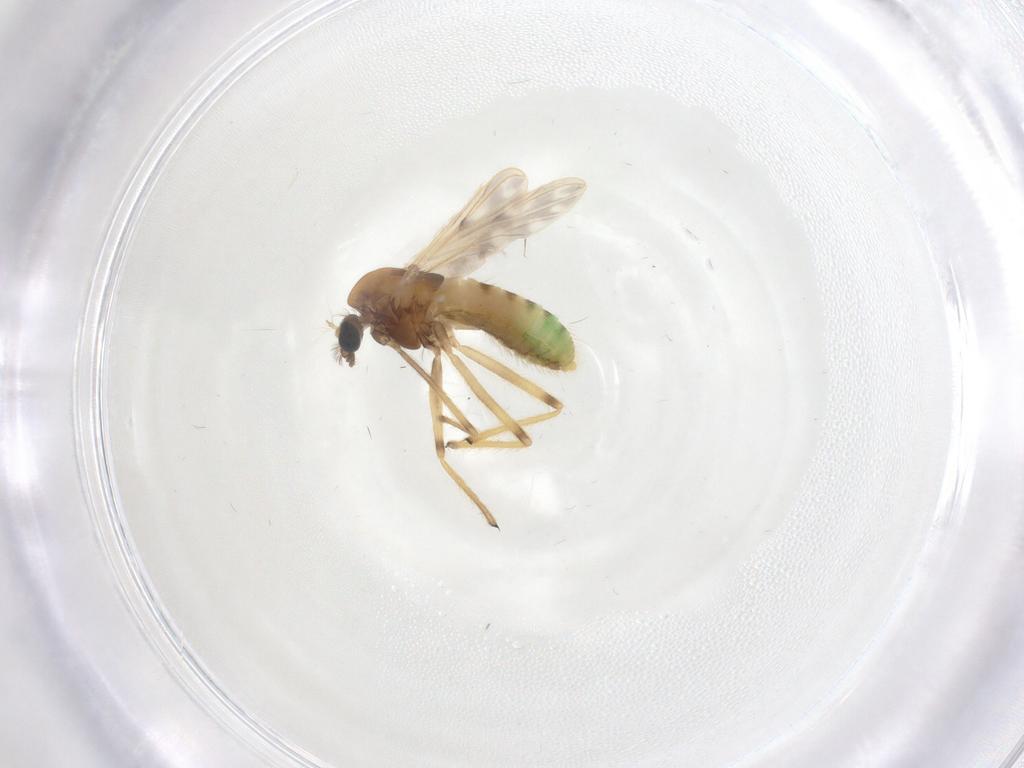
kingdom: Animalia
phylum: Arthropoda
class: Insecta
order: Diptera
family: Chironomidae
